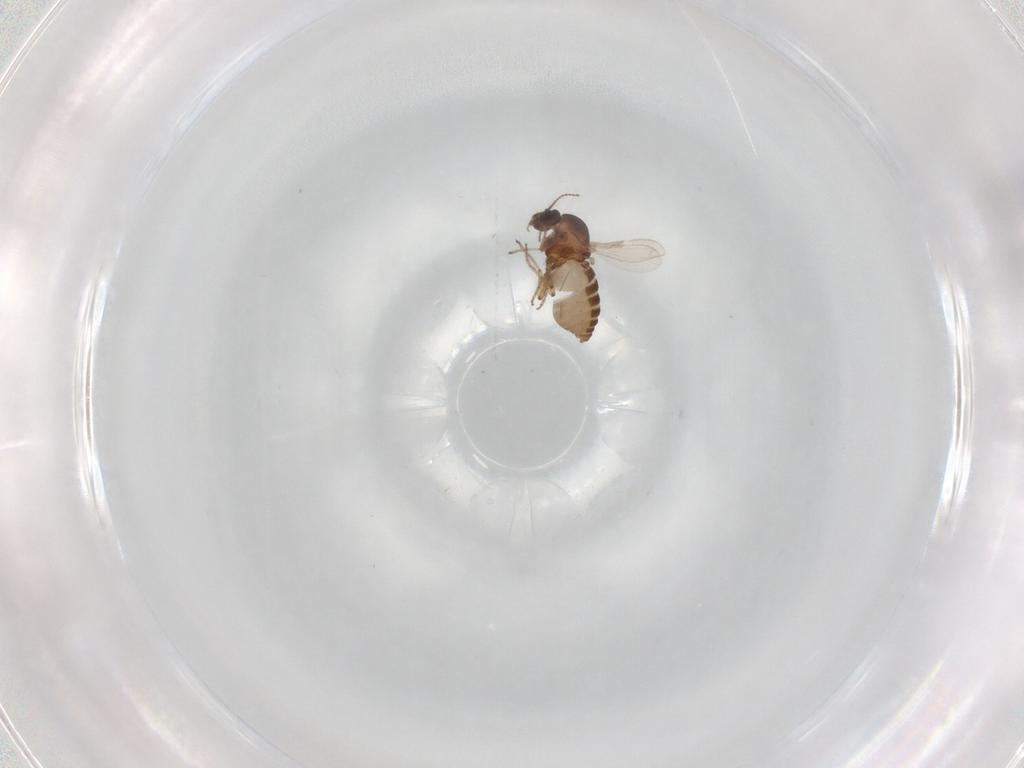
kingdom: Animalia
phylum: Arthropoda
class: Insecta
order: Diptera
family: Ceratopogonidae
